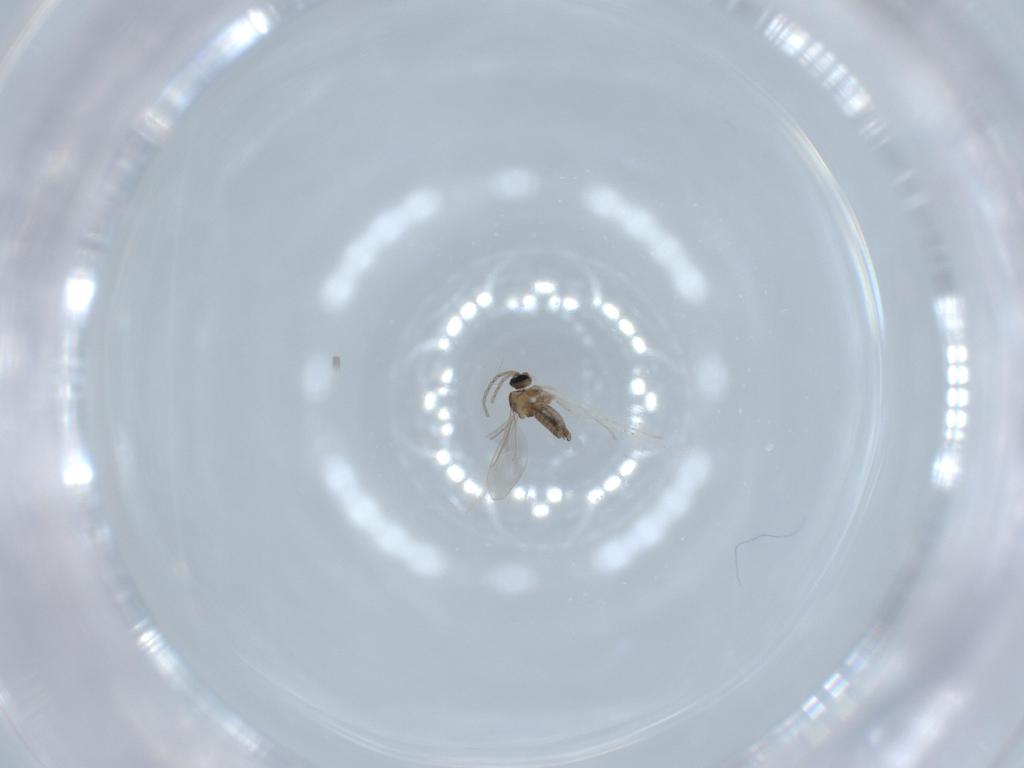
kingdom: Animalia
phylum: Arthropoda
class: Insecta
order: Diptera
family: Cecidomyiidae
